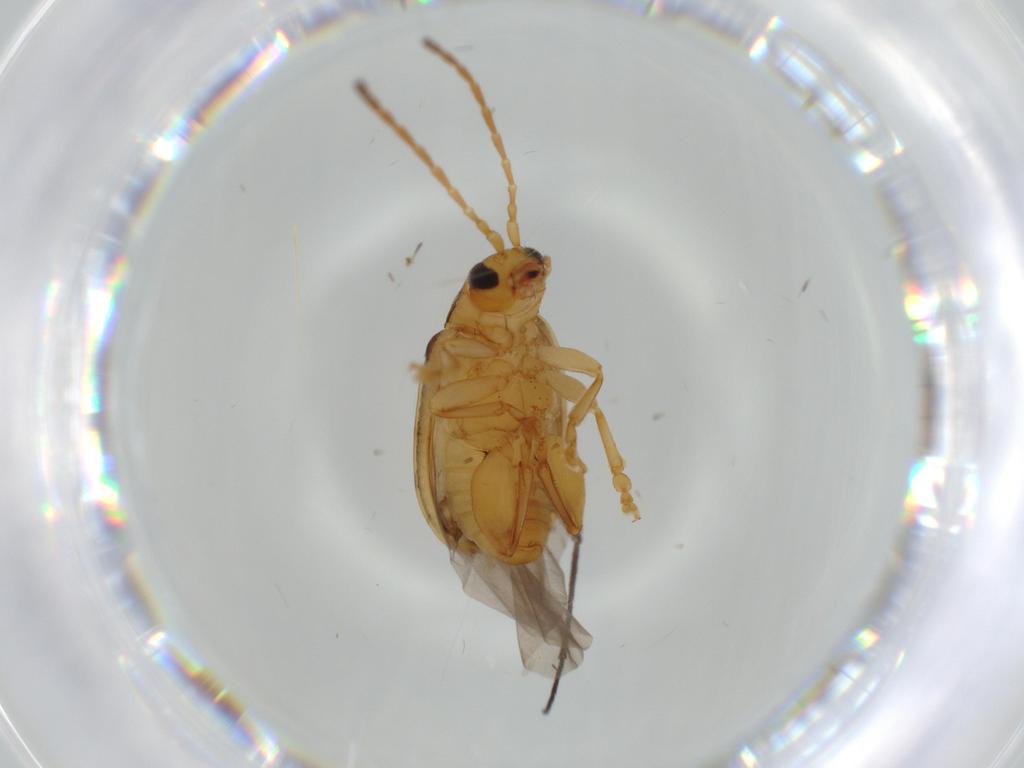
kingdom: Animalia
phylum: Arthropoda
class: Insecta
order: Coleoptera
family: Chrysomelidae
